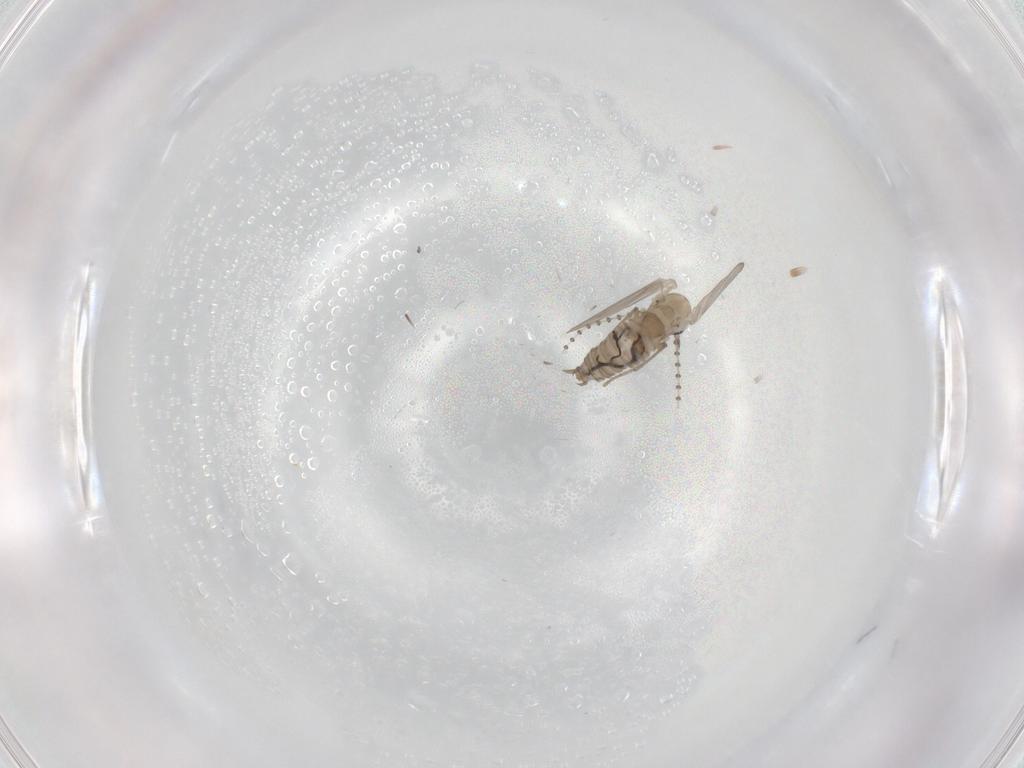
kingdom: Animalia
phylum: Arthropoda
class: Insecta
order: Diptera
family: Psychodidae
